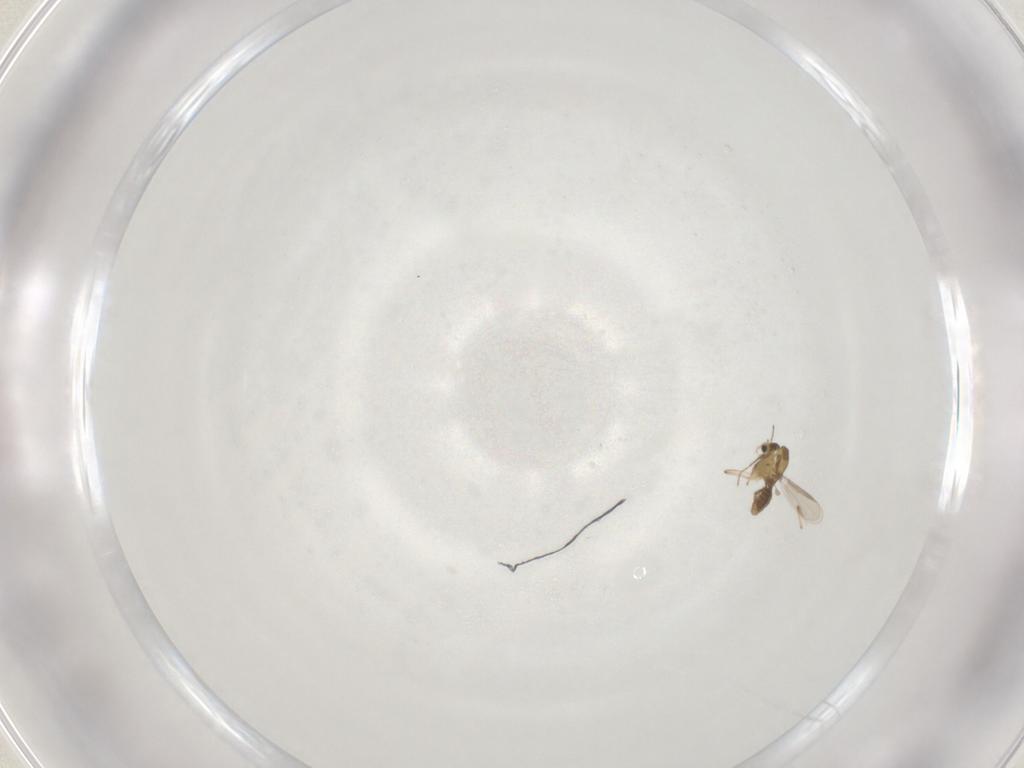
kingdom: Animalia
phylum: Arthropoda
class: Insecta
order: Diptera
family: Chironomidae
